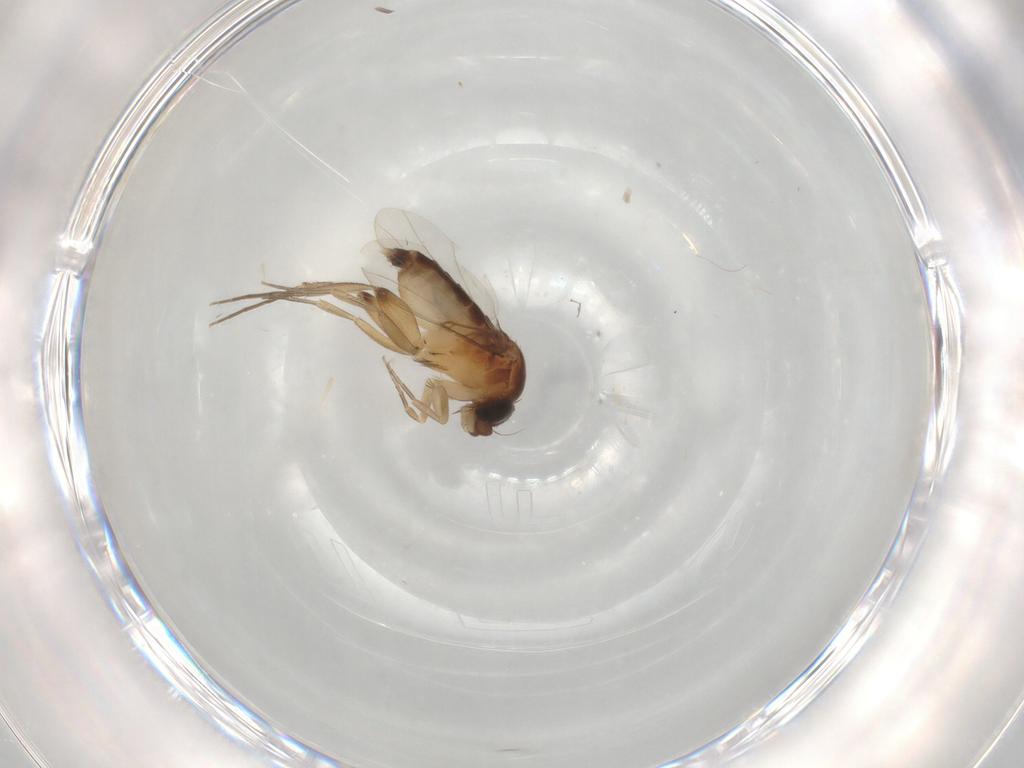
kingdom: Animalia
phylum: Arthropoda
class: Insecta
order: Diptera
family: Phoridae
